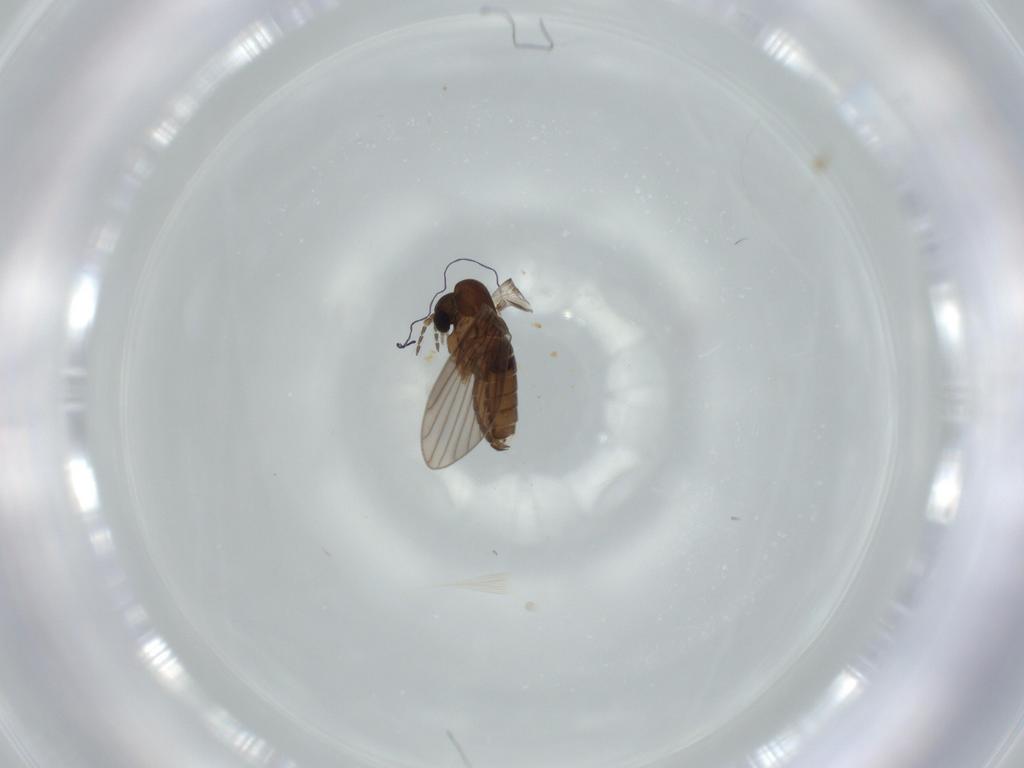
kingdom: Animalia
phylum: Arthropoda
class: Insecta
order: Diptera
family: Psychodidae
